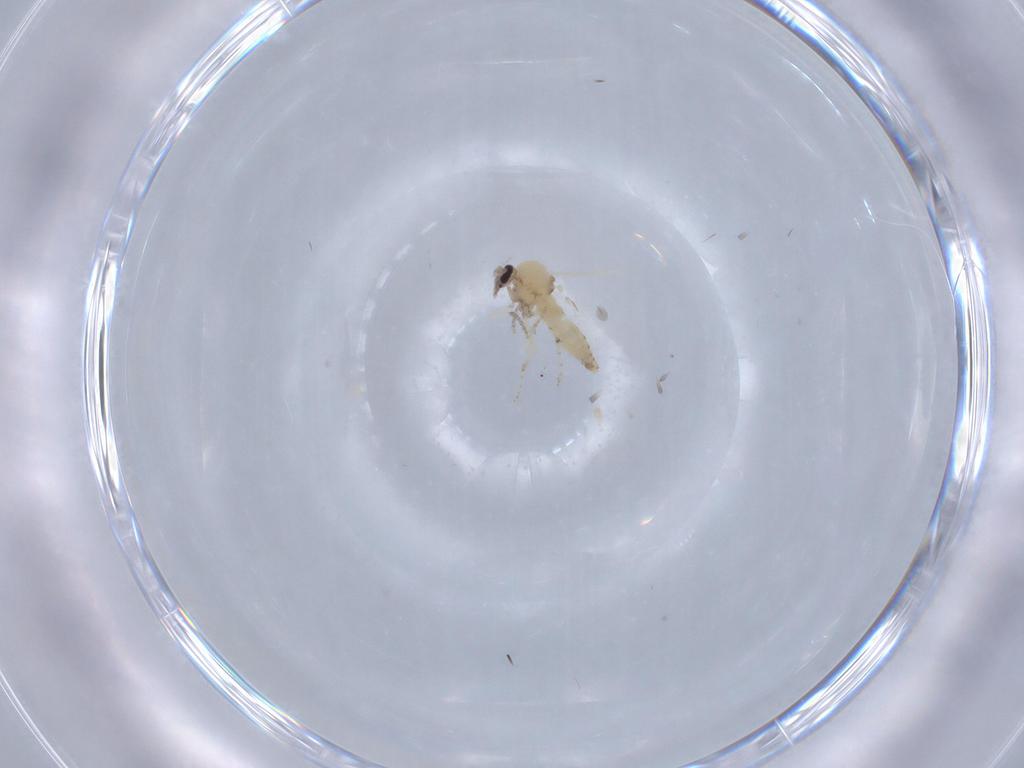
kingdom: Animalia
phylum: Arthropoda
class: Insecta
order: Diptera
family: Ceratopogonidae
